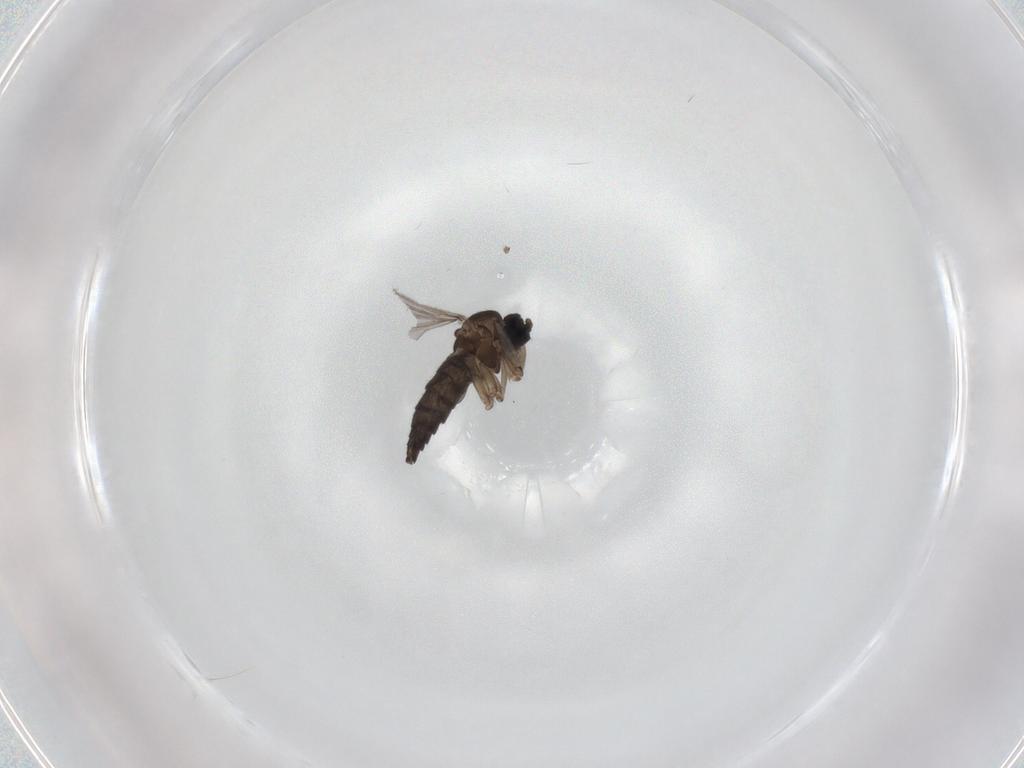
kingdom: Animalia
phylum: Arthropoda
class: Insecta
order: Diptera
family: Sciaridae
